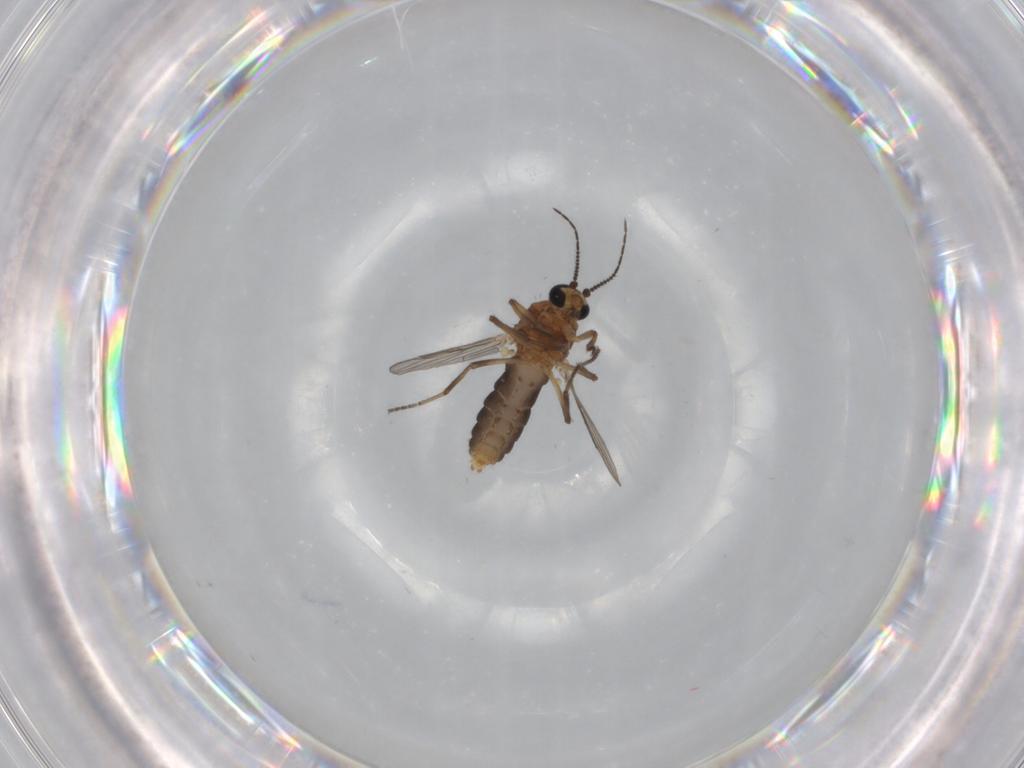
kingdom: Animalia
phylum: Arthropoda
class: Insecta
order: Diptera
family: Ceratopogonidae
